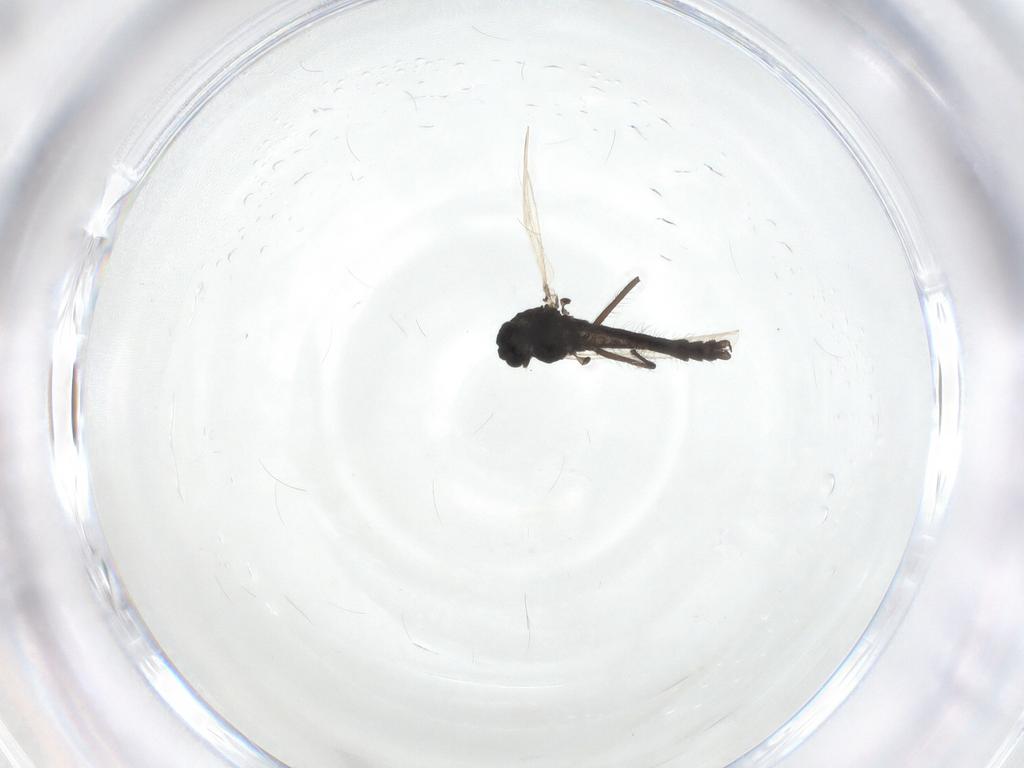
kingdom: Animalia
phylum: Arthropoda
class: Insecta
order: Diptera
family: Chironomidae
